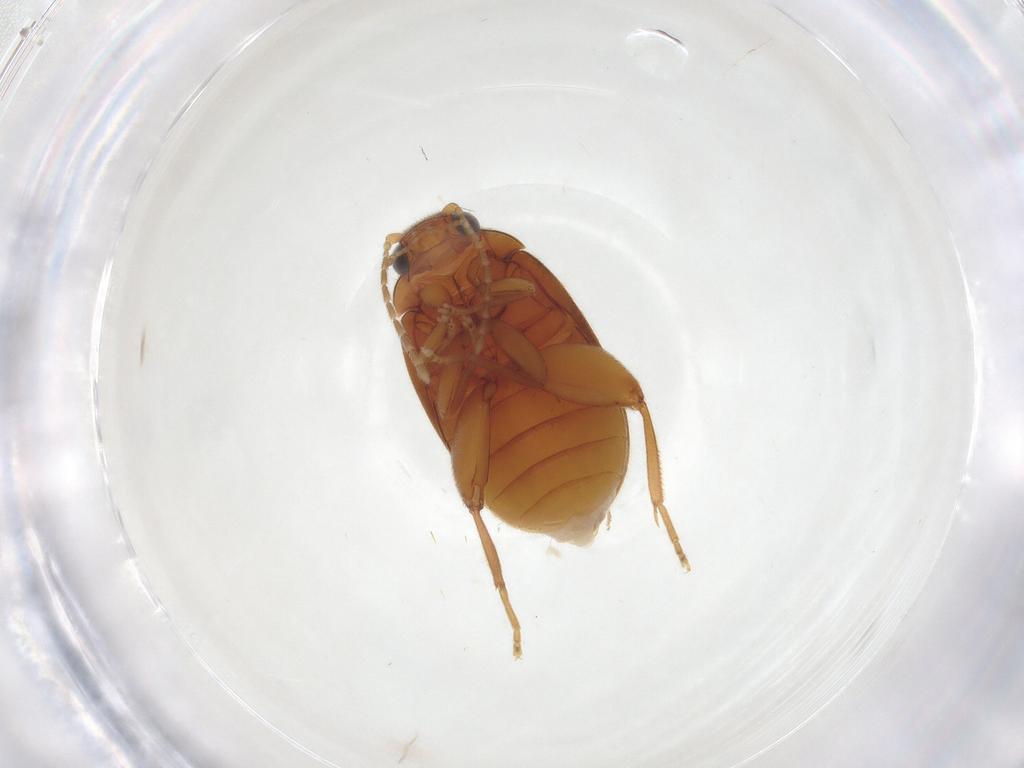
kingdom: Animalia
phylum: Arthropoda
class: Insecta
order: Coleoptera
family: Scirtidae
